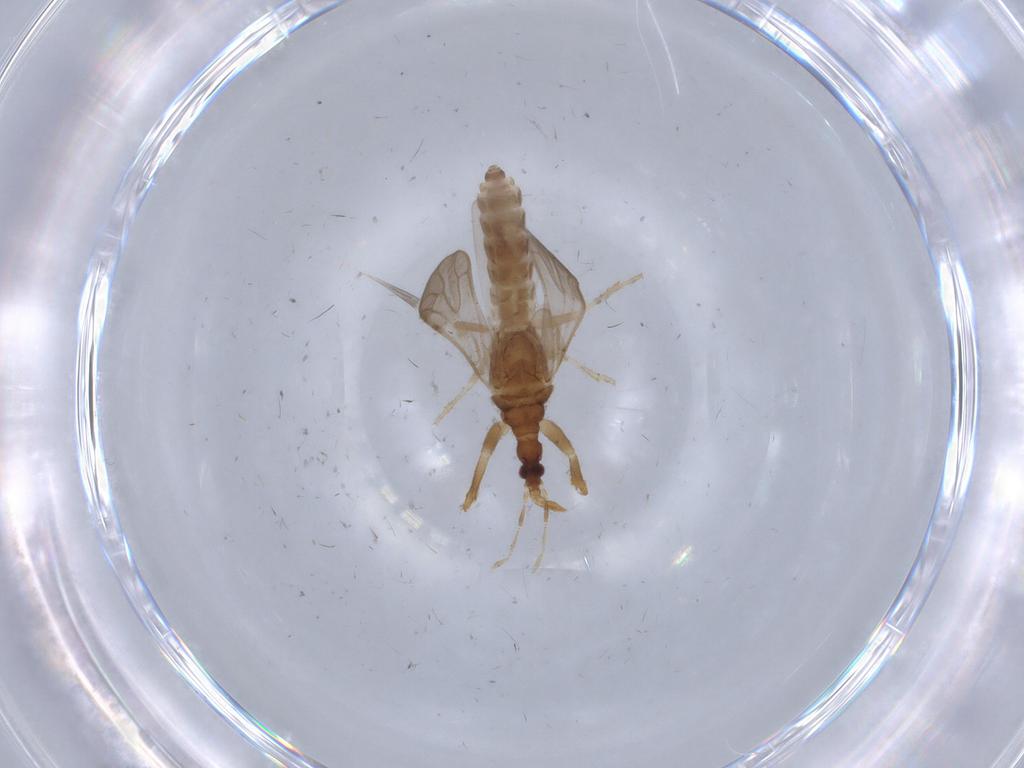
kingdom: Animalia
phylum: Arthropoda
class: Insecta
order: Hemiptera
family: Enicocephalidae
